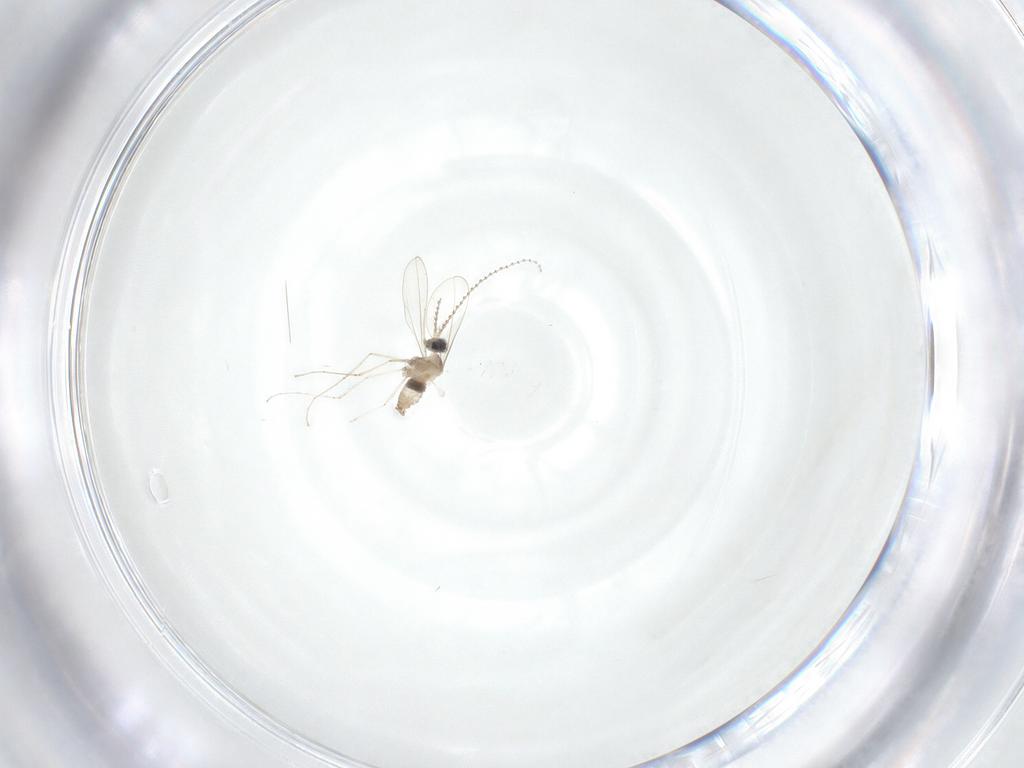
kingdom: Animalia
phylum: Arthropoda
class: Insecta
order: Diptera
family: Cecidomyiidae
